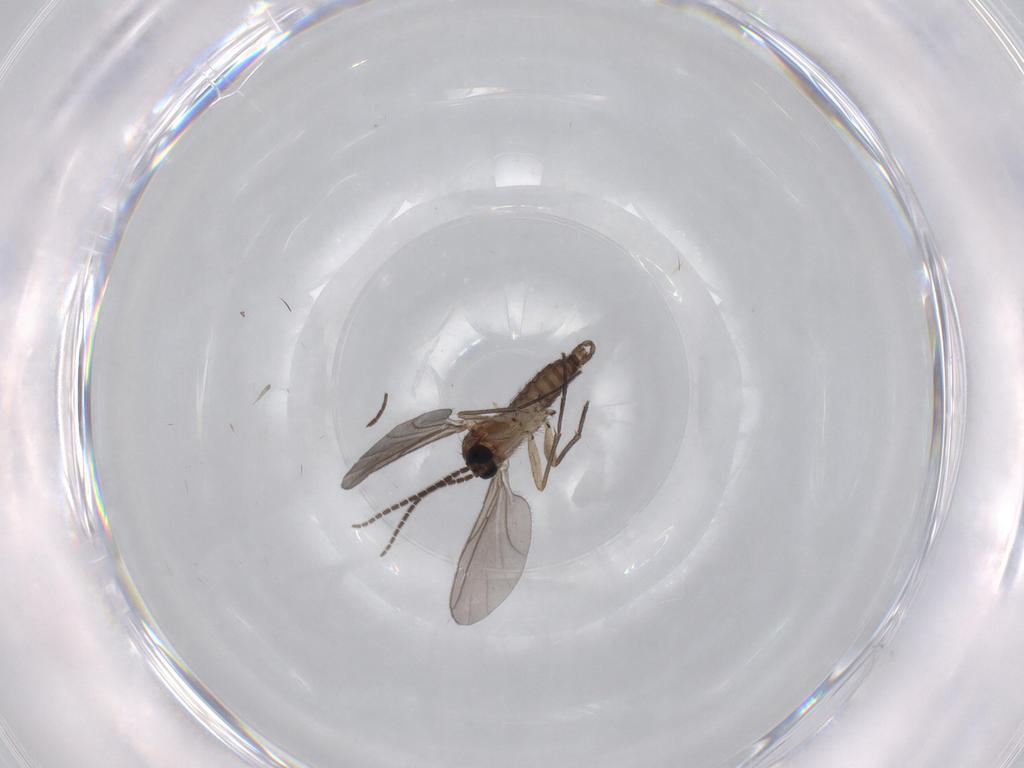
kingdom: Animalia
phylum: Arthropoda
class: Insecta
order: Diptera
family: Sciaridae
